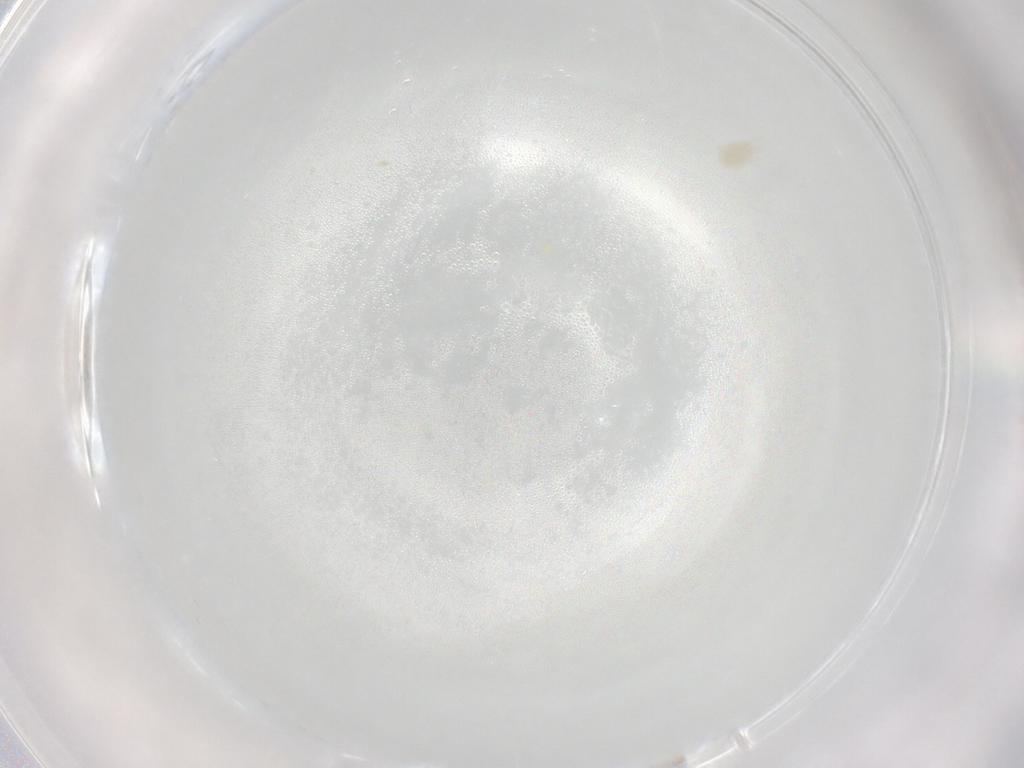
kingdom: Animalia
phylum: Arthropoda
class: Arachnida
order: Trombidiformes
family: Eupodidae
